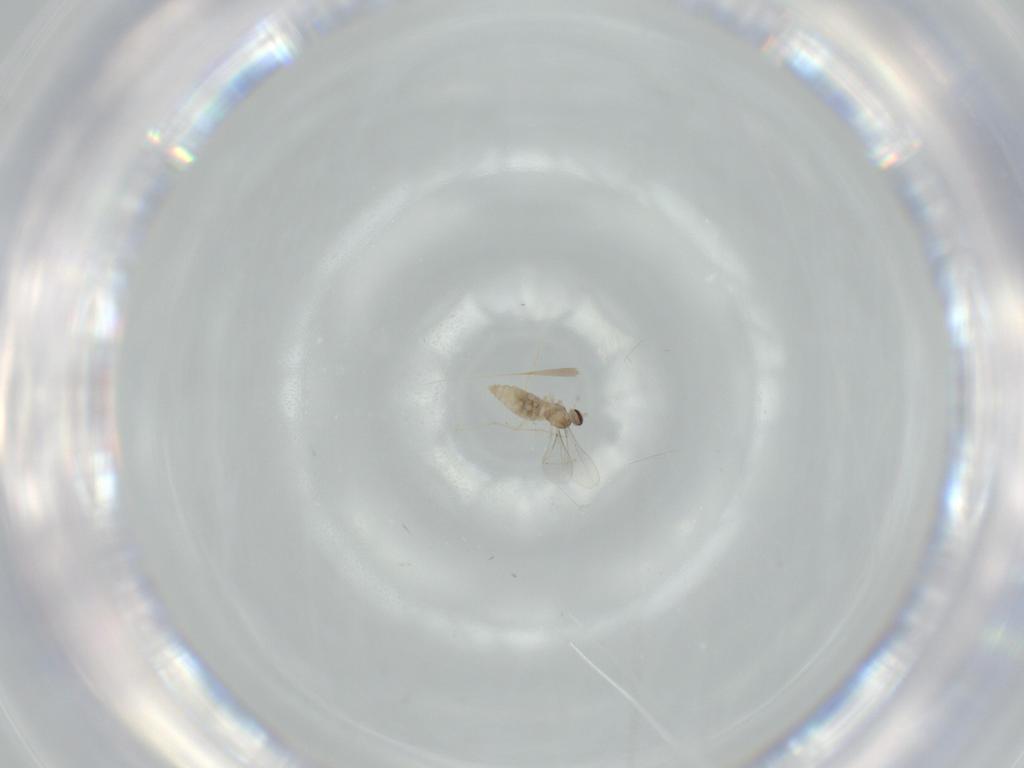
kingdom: Animalia
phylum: Arthropoda
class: Insecta
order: Diptera
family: Cecidomyiidae
